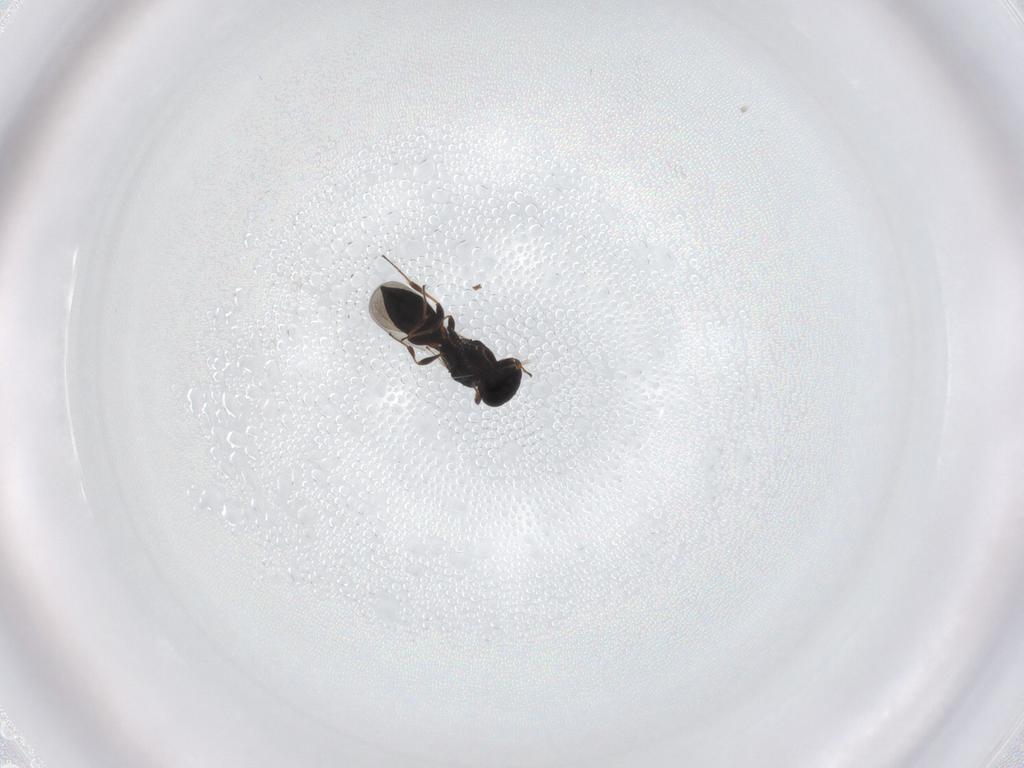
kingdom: Animalia
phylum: Arthropoda
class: Insecta
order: Hymenoptera
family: Platygastridae
